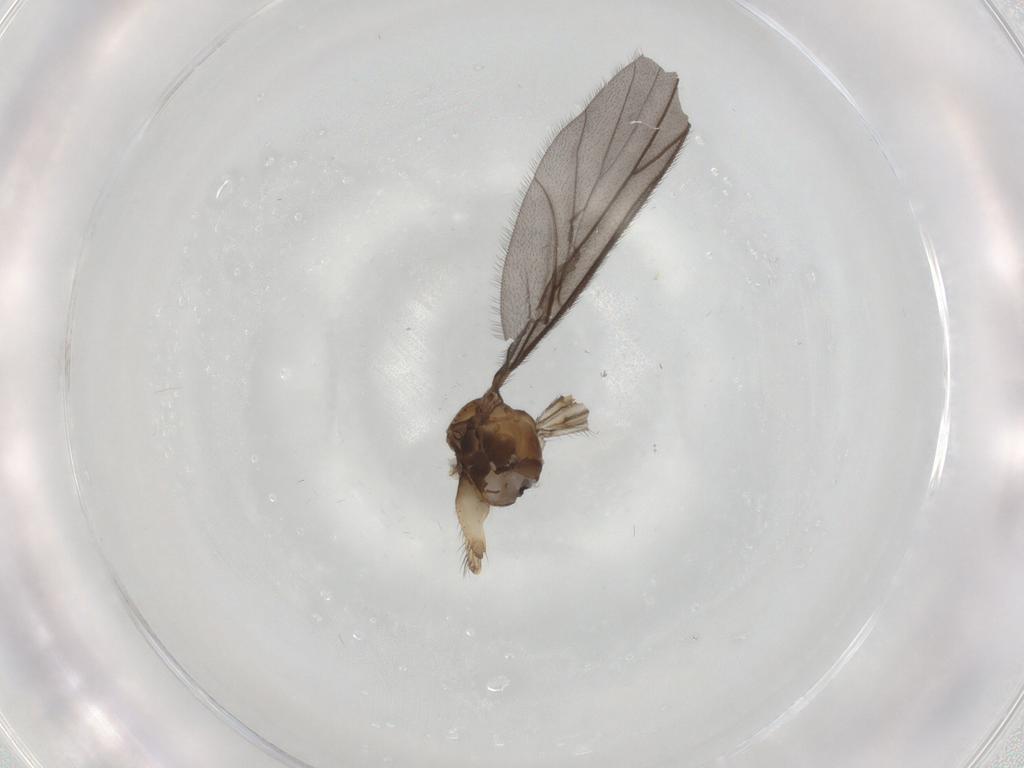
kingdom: Animalia
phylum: Arthropoda
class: Insecta
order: Diptera
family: Ditomyiidae
